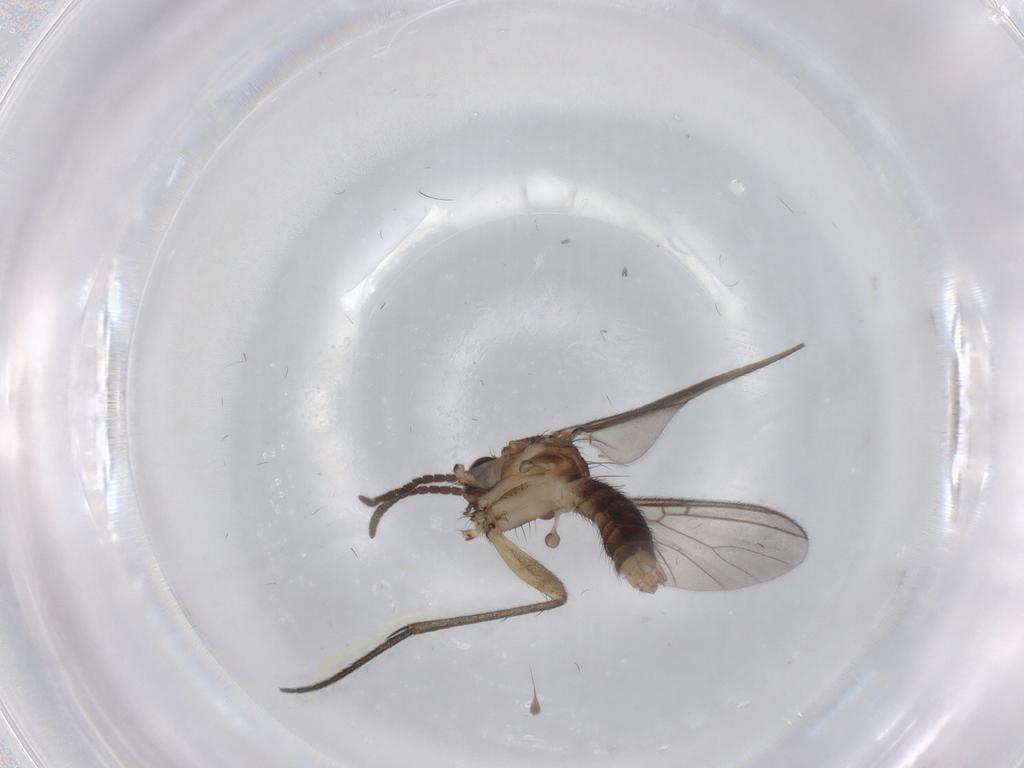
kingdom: Animalia
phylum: Arthropoda
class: Insecta
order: Diptera
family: Mycetophilidae
